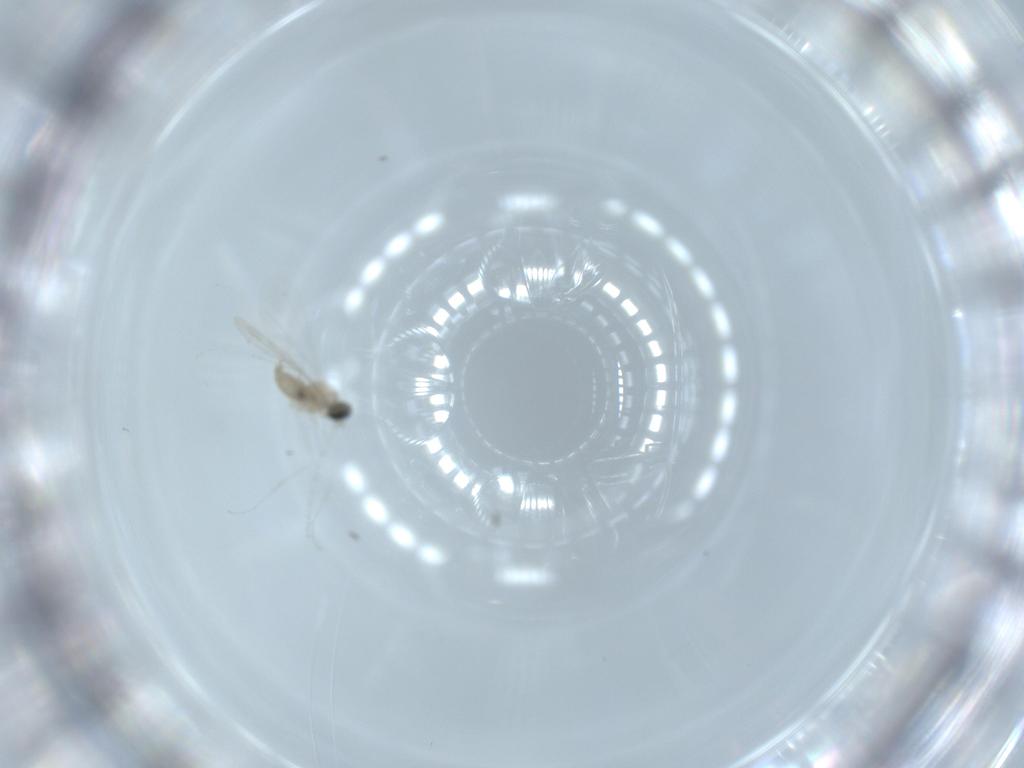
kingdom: Animalia
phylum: Arthropoda
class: Insecta
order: Diptera
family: Cecidomyiidae
